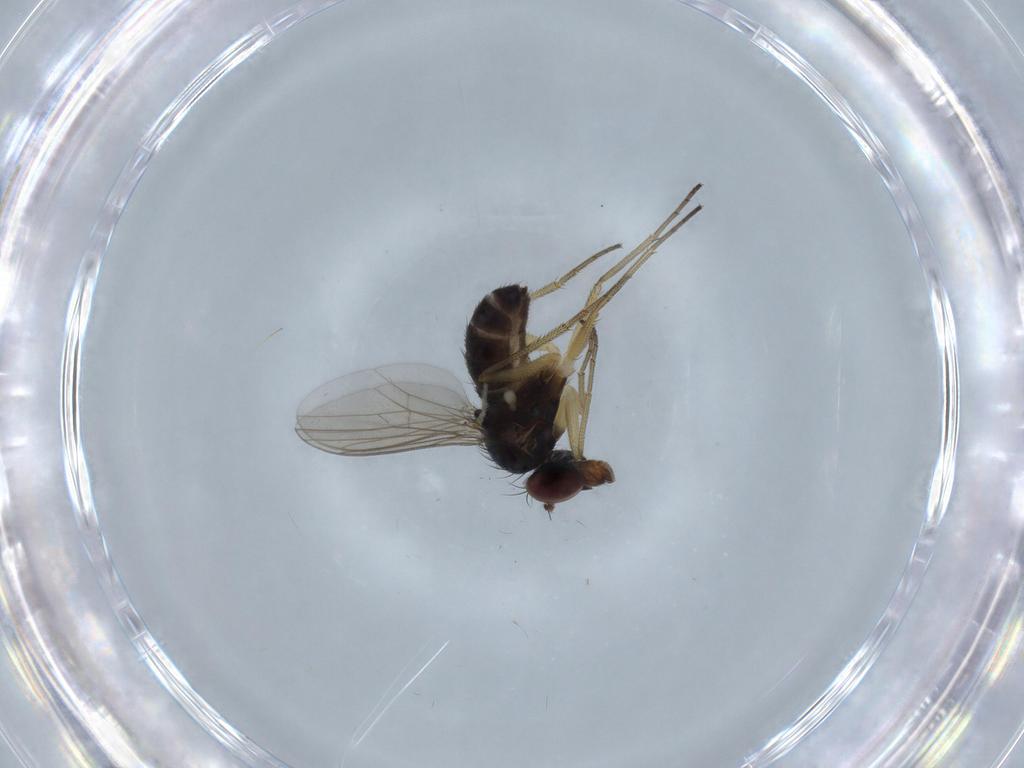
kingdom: Animalia
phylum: Arthropoda
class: Insecta
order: Diptera
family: Dolichopodidae
